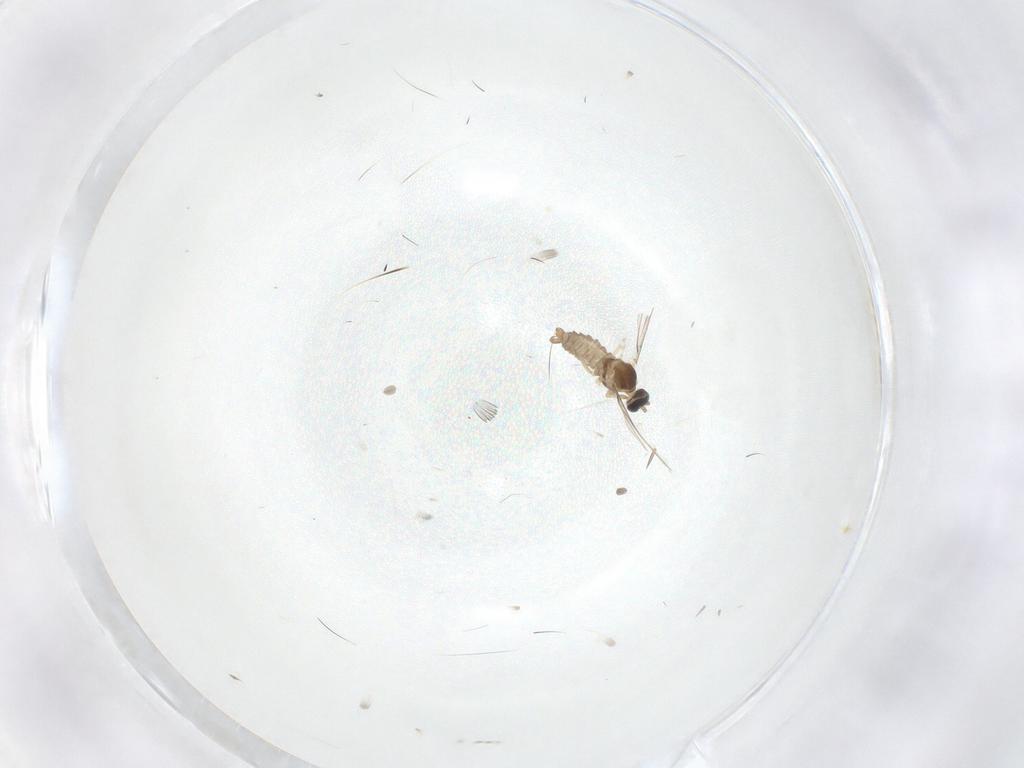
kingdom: Animalia
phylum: Arthropoda
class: Insecta
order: Diptera
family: Cecidomyiidae
